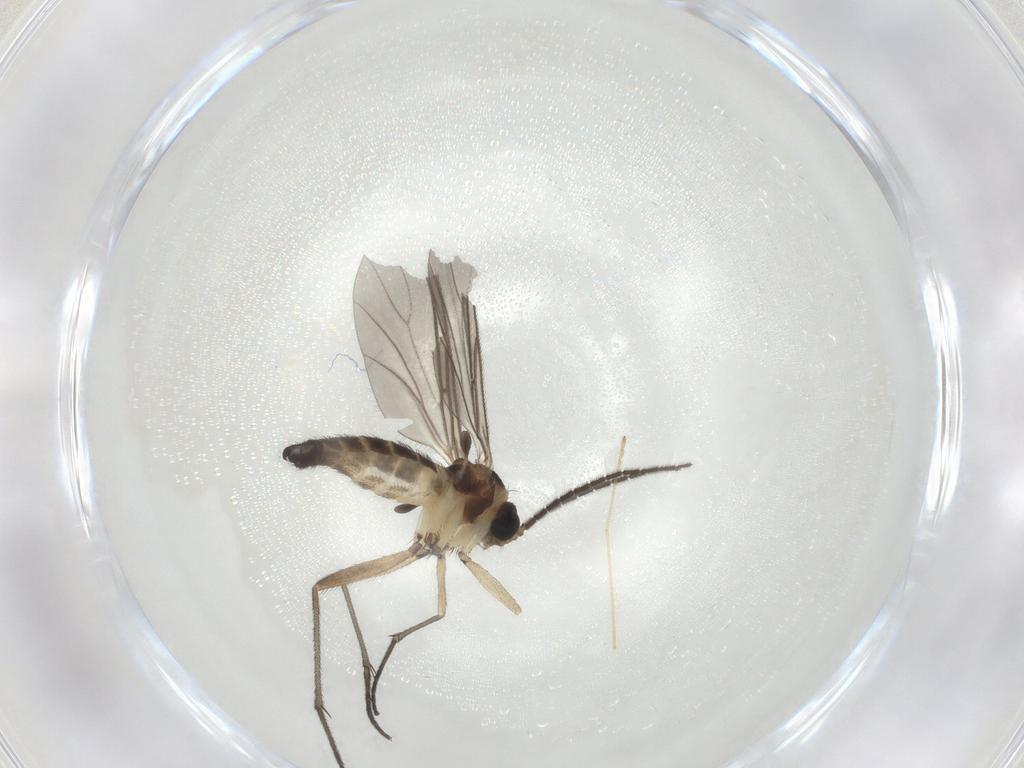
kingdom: Animalia
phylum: Arthropoda
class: Insecta
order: Diptera
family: Sciaridae
